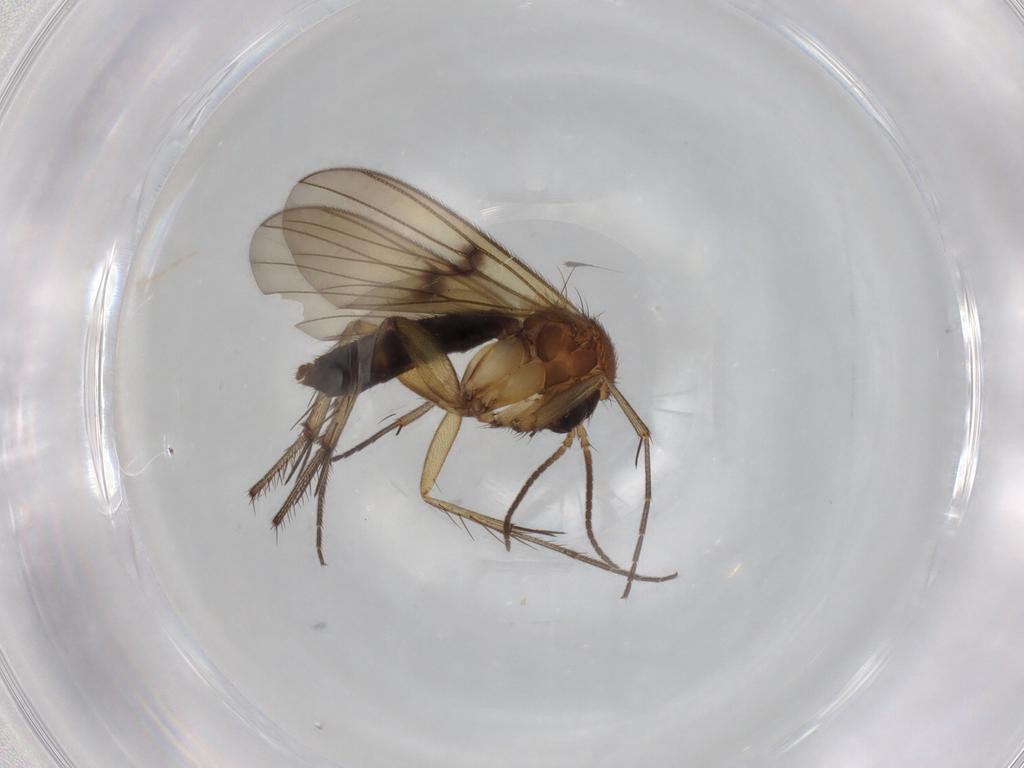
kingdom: Animalia
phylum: Arthropoda
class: Insecta
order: Diptera
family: Mycetophilidae
